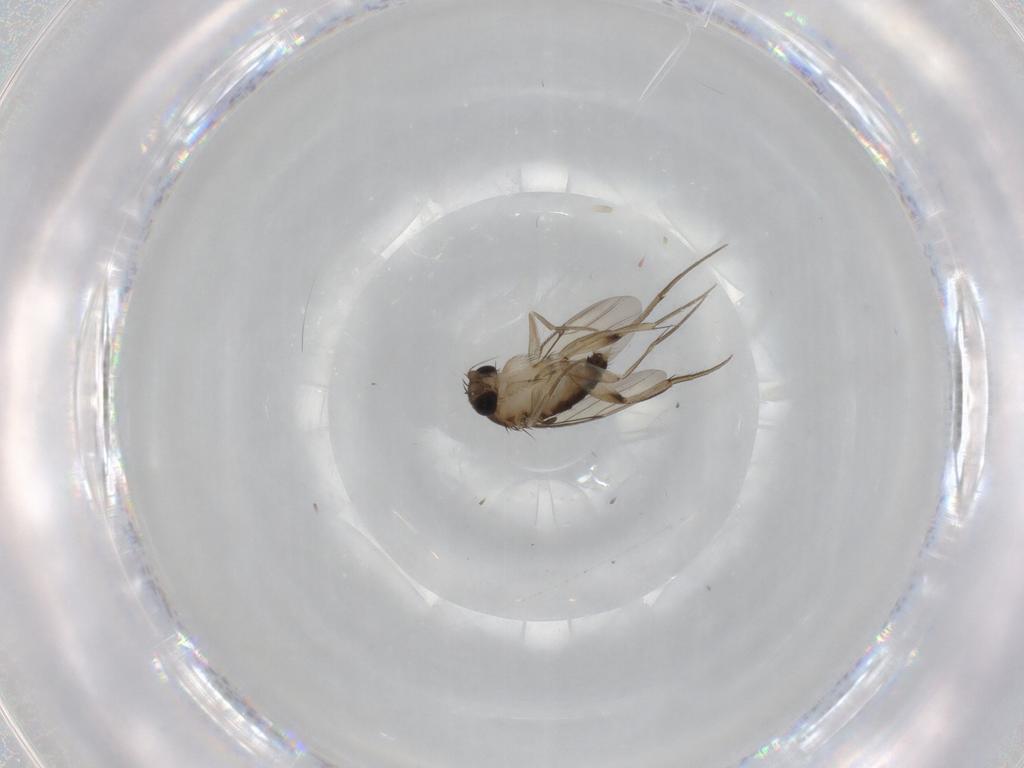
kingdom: Animalia
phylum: Arthropoda
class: Insecta
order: Diptera
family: Phoridae
